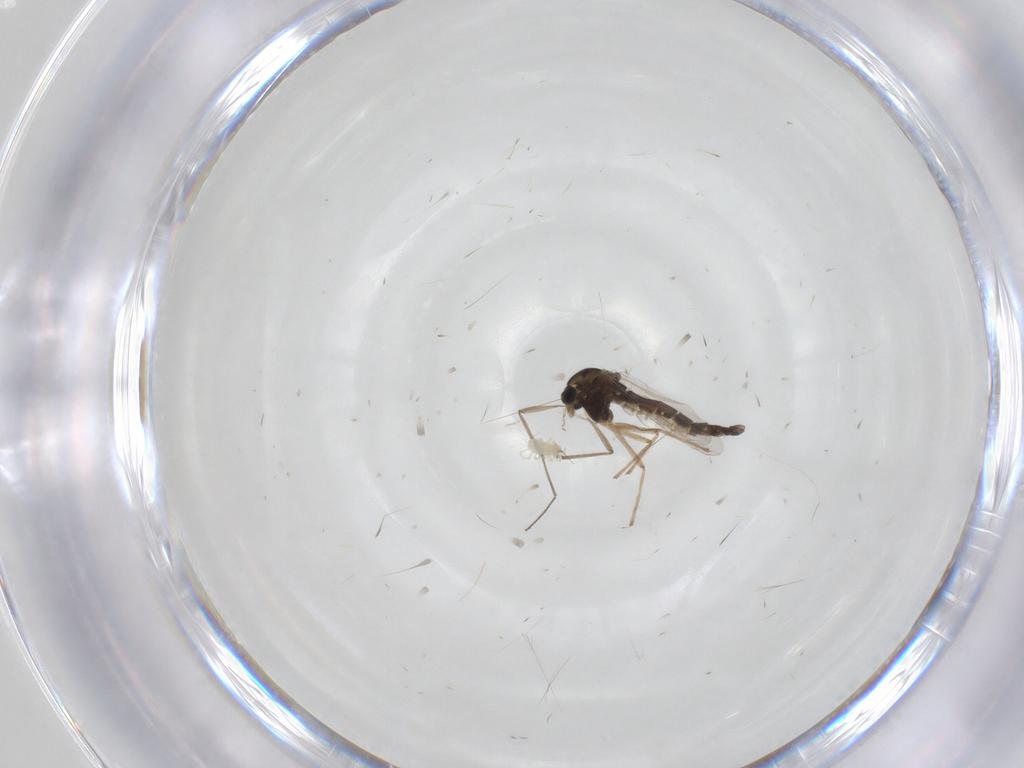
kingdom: Animalia
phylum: Arthropoda
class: Insecta
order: Diptera
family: Chironomidae
